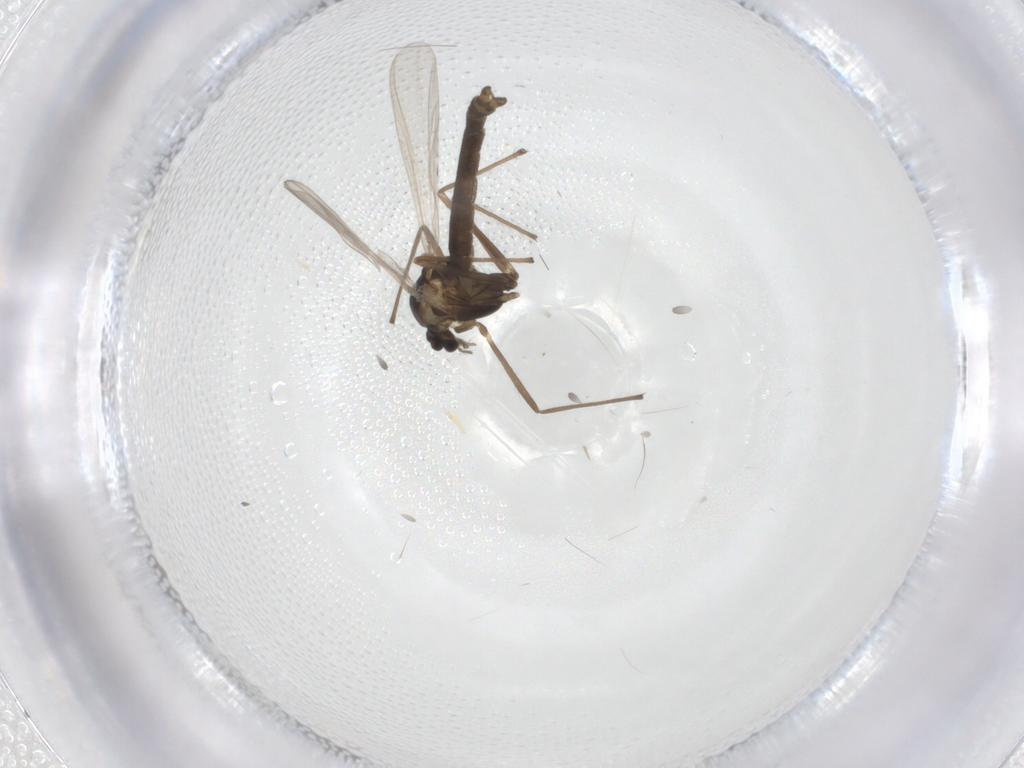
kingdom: Animalia
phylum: Arthropoda
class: Insecta
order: Diptera
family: Chironomidae
